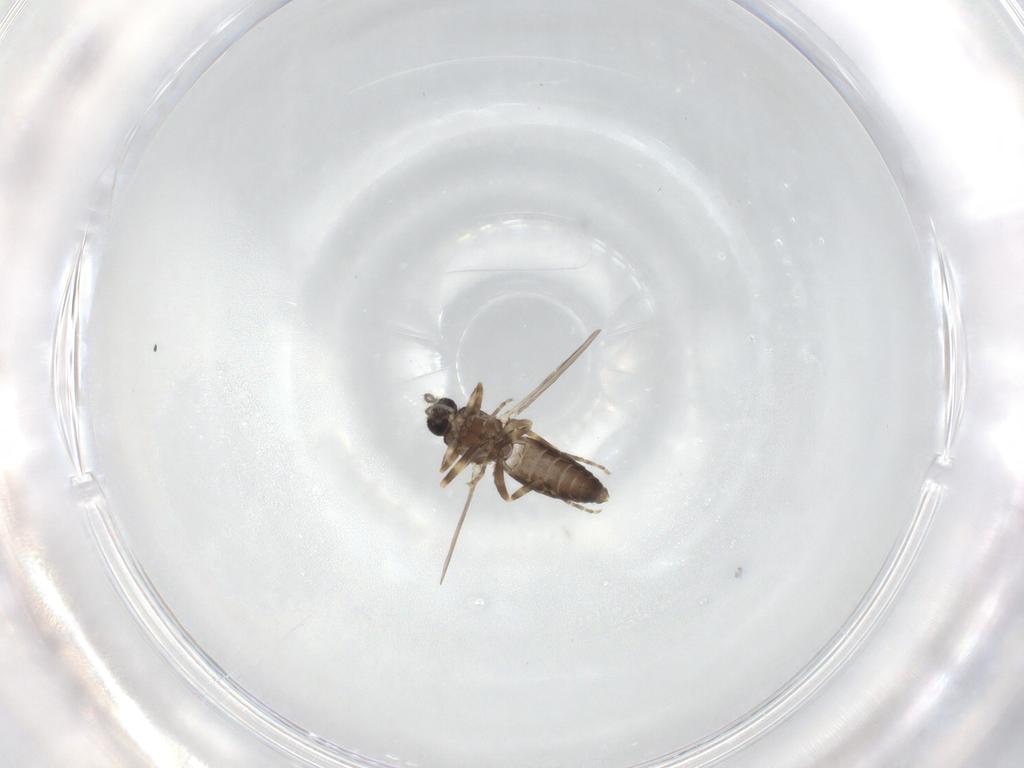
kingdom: Animalia
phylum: Arthropoda
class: Insecta
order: Diptera
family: Ceratopogonidae
